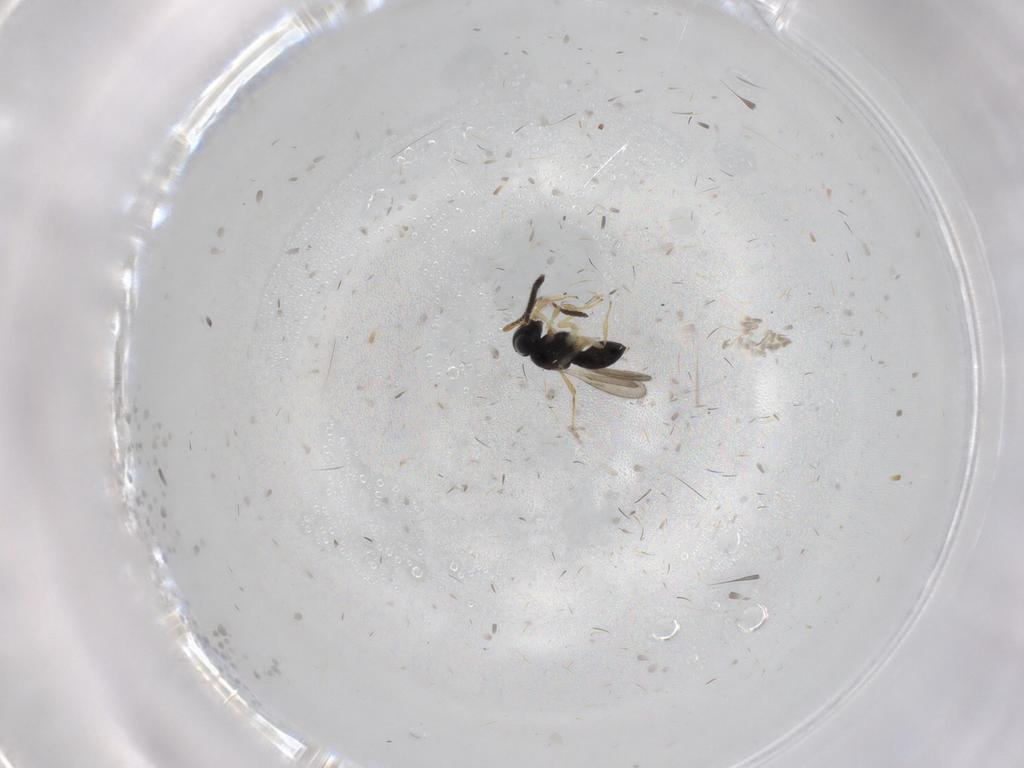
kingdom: Animalia
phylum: Arthropoda
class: Insecta
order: Hymenoptera
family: Scelionidae
